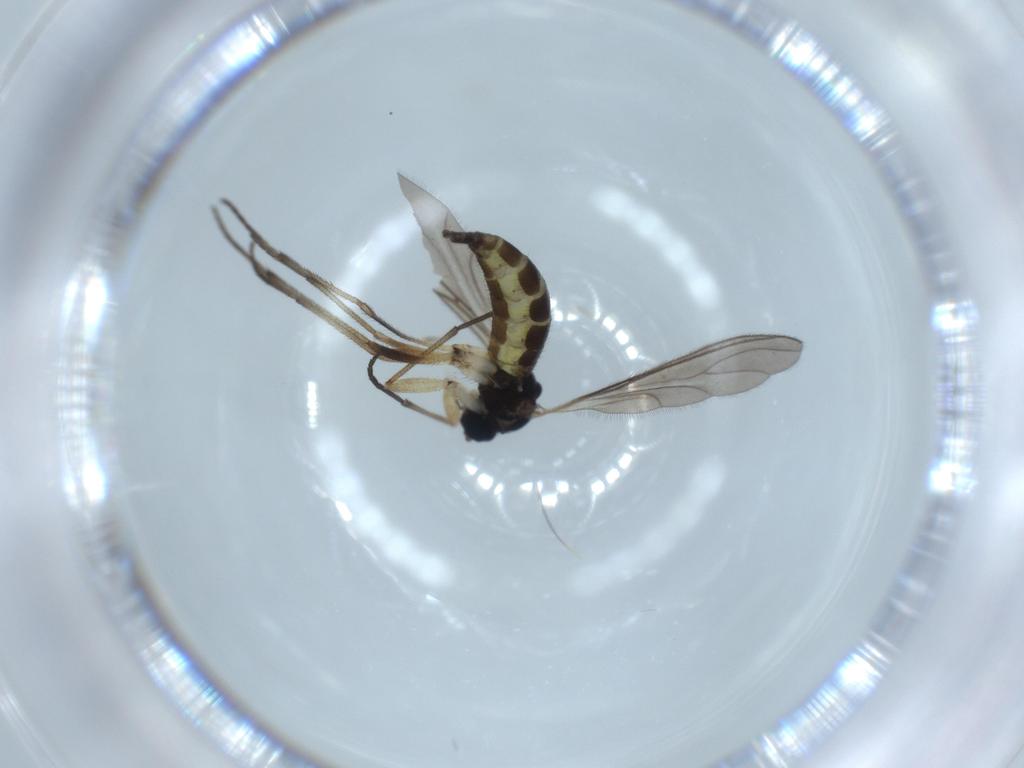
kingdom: Animalia
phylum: Arthropoda
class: Insecta
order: Diptera
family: Sciaridae
